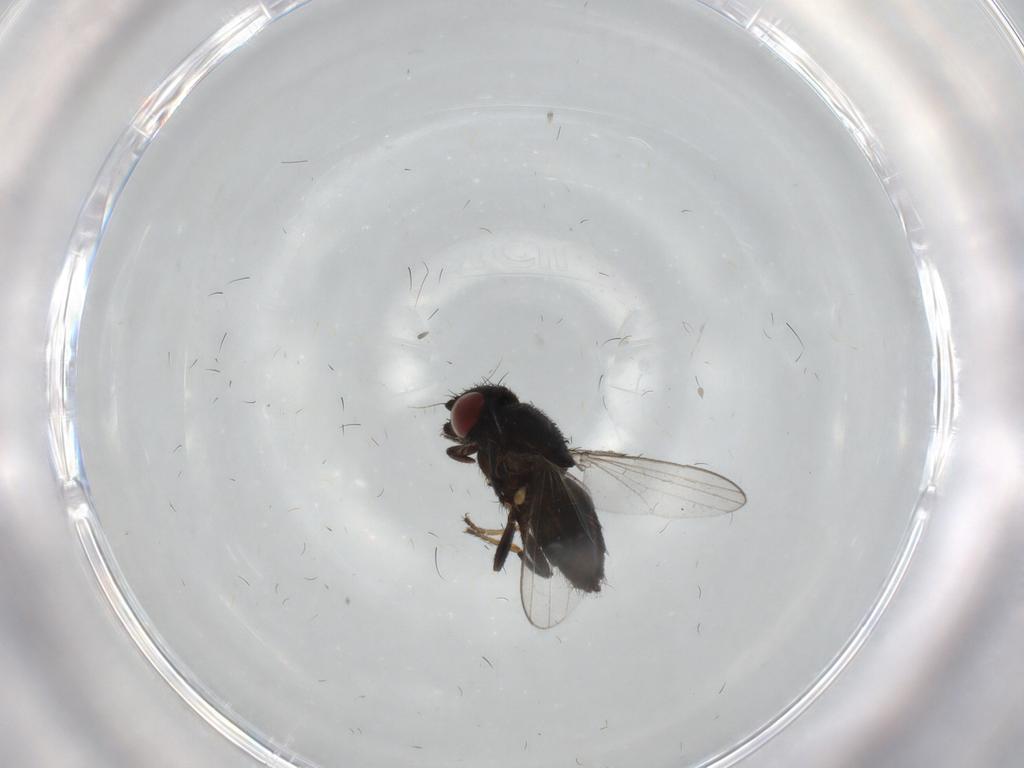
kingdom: Animalia
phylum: Arthropoda
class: Insecta
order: Diptera
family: Milichiidae
